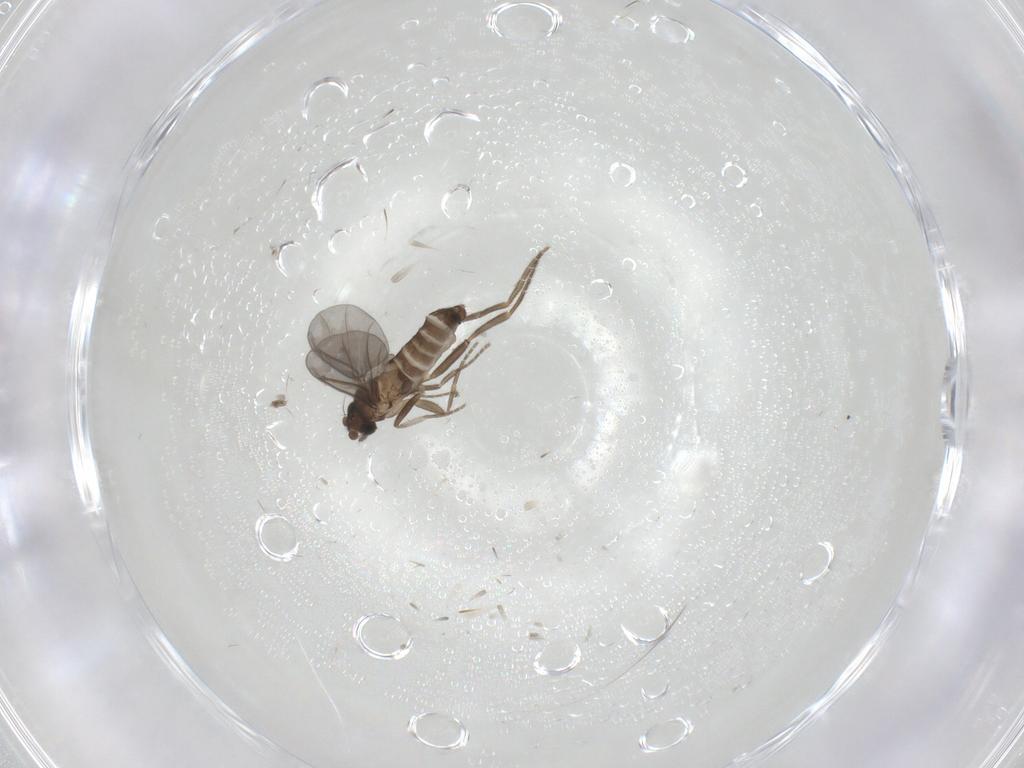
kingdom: Animalia
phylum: Arthropoda
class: Insecta
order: Diptera
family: Phoridae
